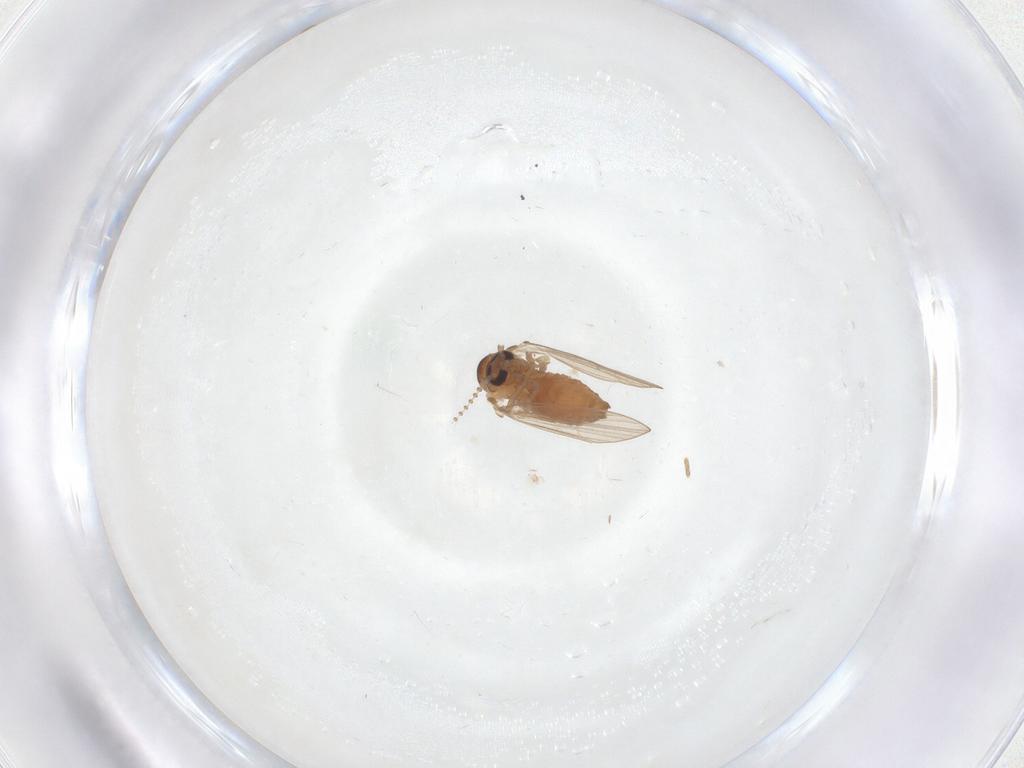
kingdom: Animalia
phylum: Arthropoda
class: Insecta
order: Diptera
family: Psychodidae
